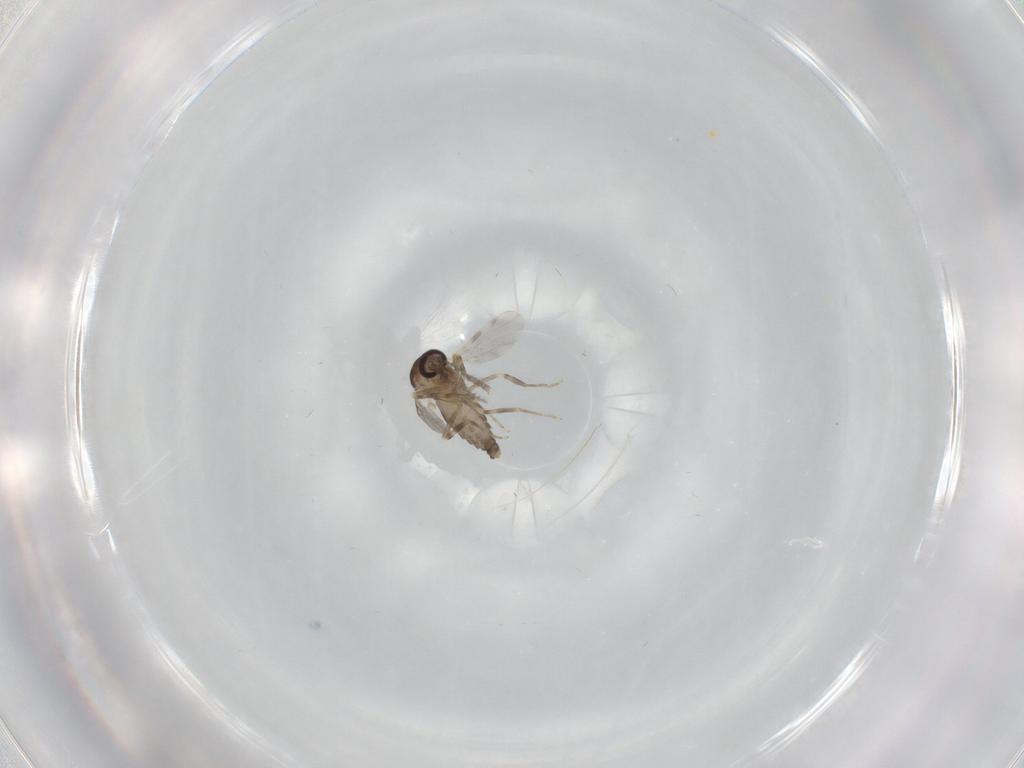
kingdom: Animalia
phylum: Arthropoda
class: Insecta
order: Diptera
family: Ceratopogonidae
